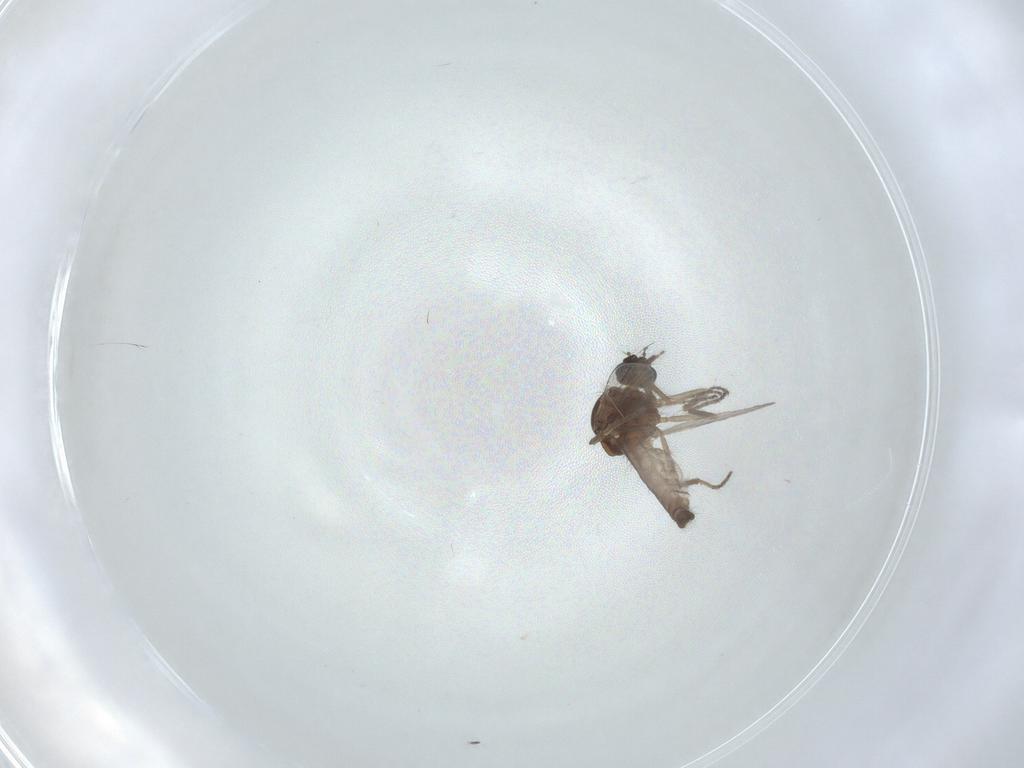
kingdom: Animalia
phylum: Arthropoda
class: Insecta
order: Diptera
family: Ceratopogonidae
